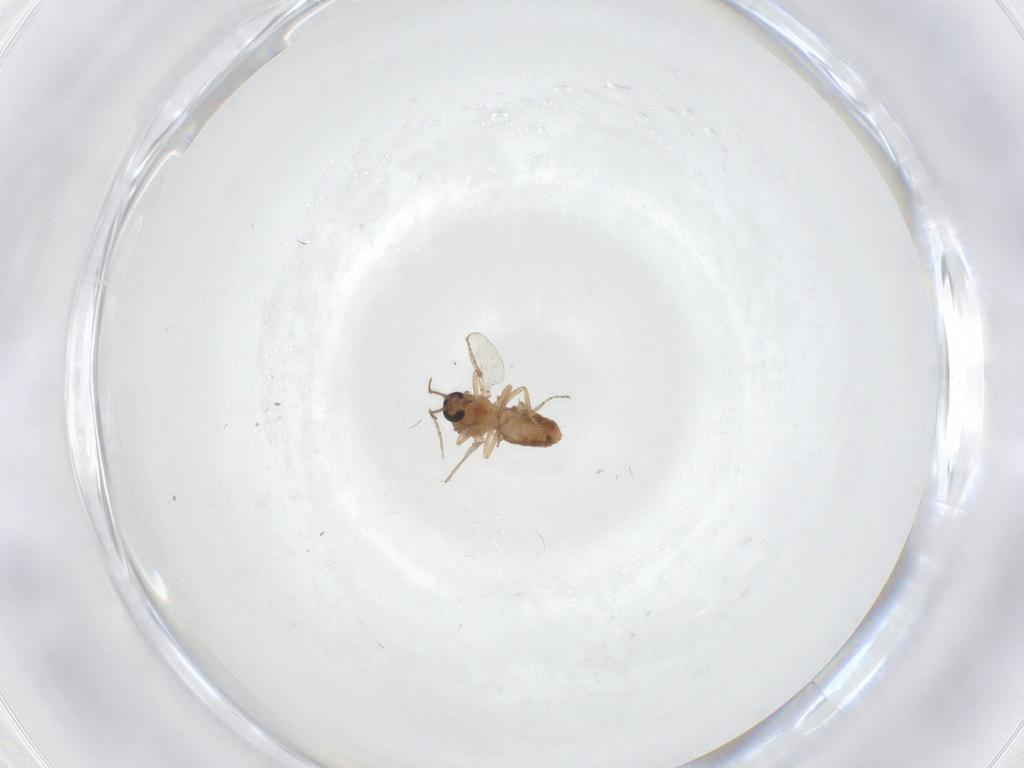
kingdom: Animalia
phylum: Arthropoda
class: Insecta
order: Diptera
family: Ceratopogonidae
